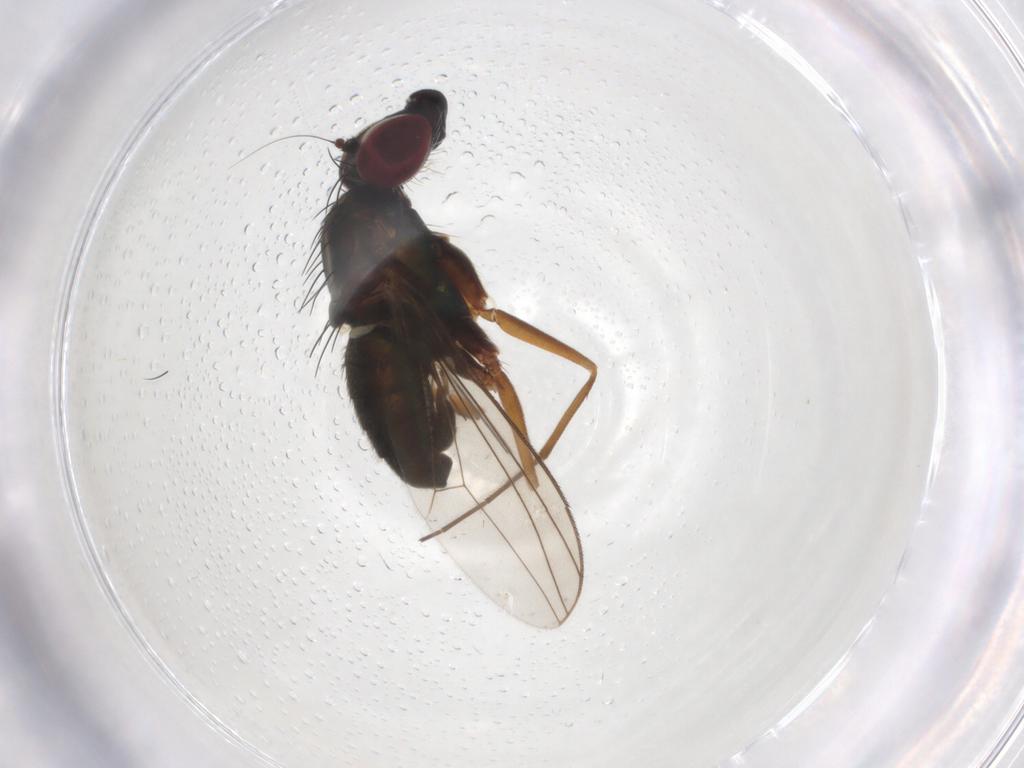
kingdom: Animalia
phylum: Arthropoda
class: Insecta
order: Diptera
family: Dolichopodidae
